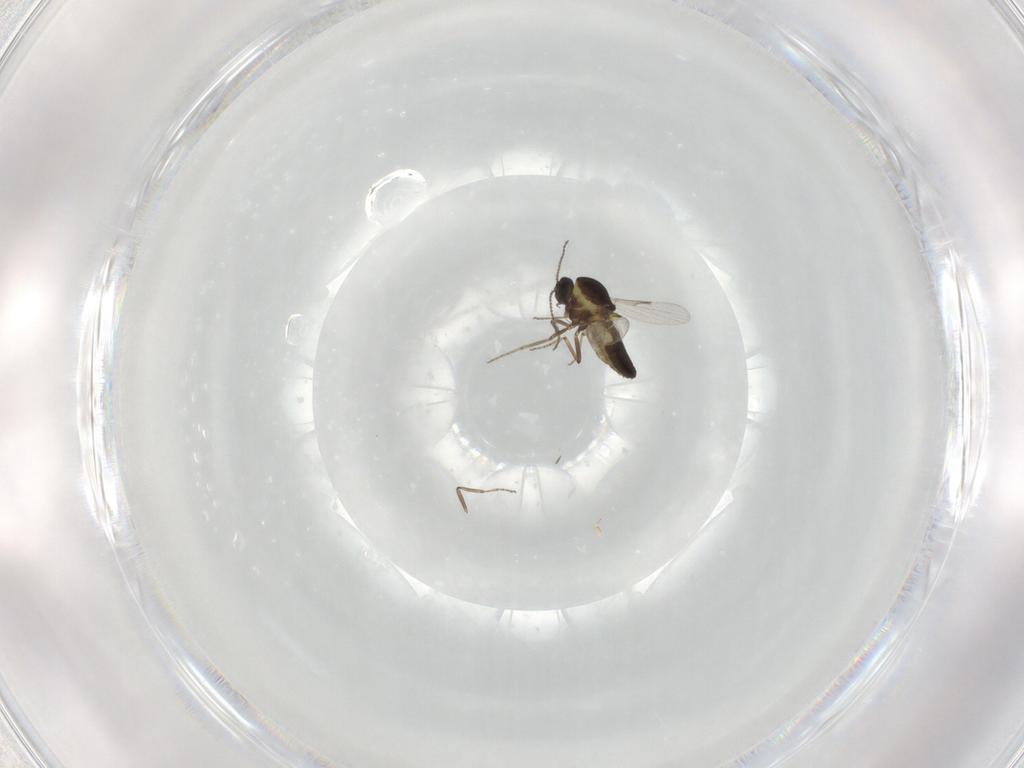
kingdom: Animalia
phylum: Arthropoda
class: Insecta
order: Diptera
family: Ceratopogonidae
